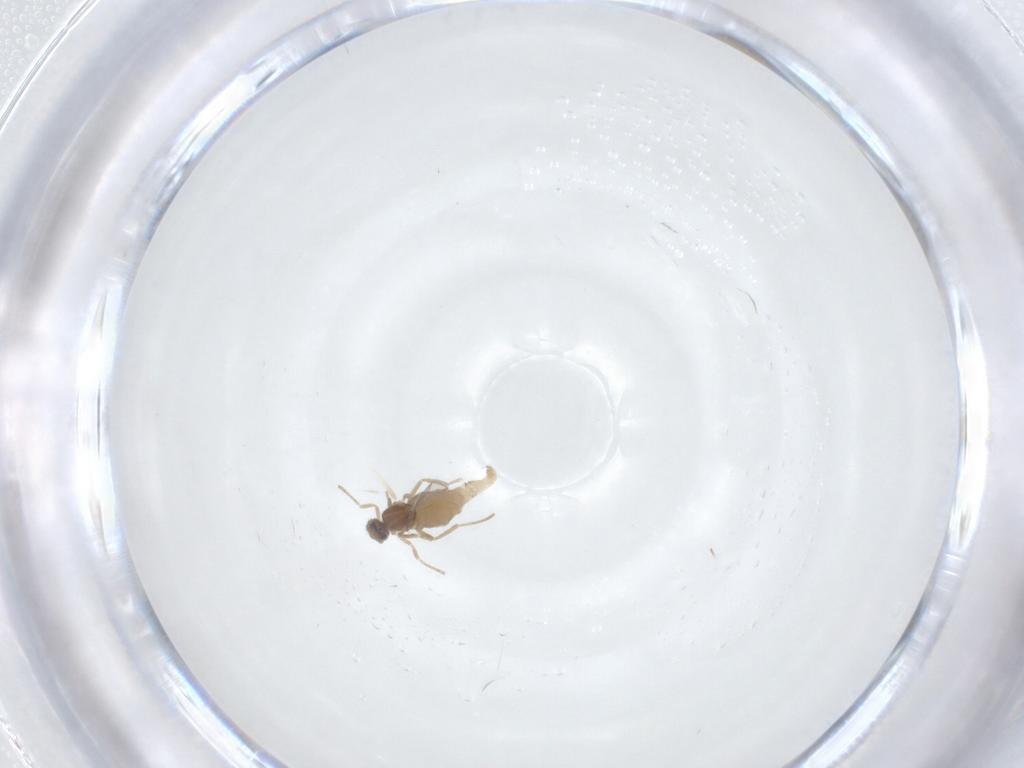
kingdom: Animalia
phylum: Arthropoda
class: Insecta
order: Diptera
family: Cecidomyiidae
